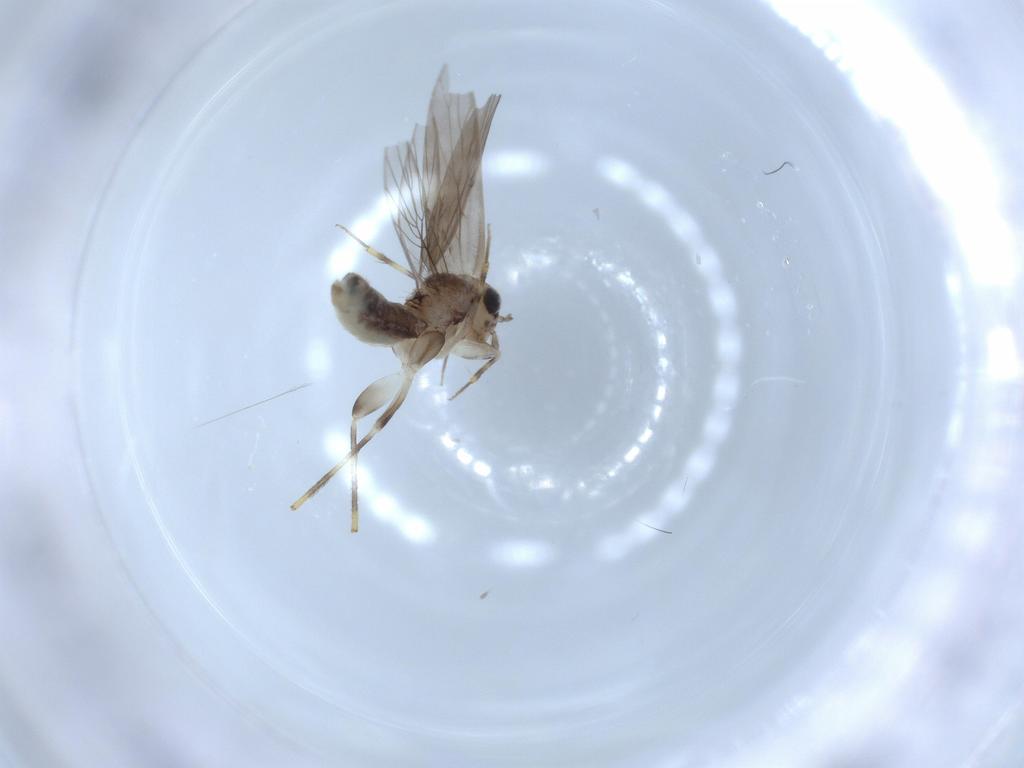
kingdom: Animalia
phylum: Arthropoda
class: Insecta
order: Psocodea
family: Lepidopsocidae
